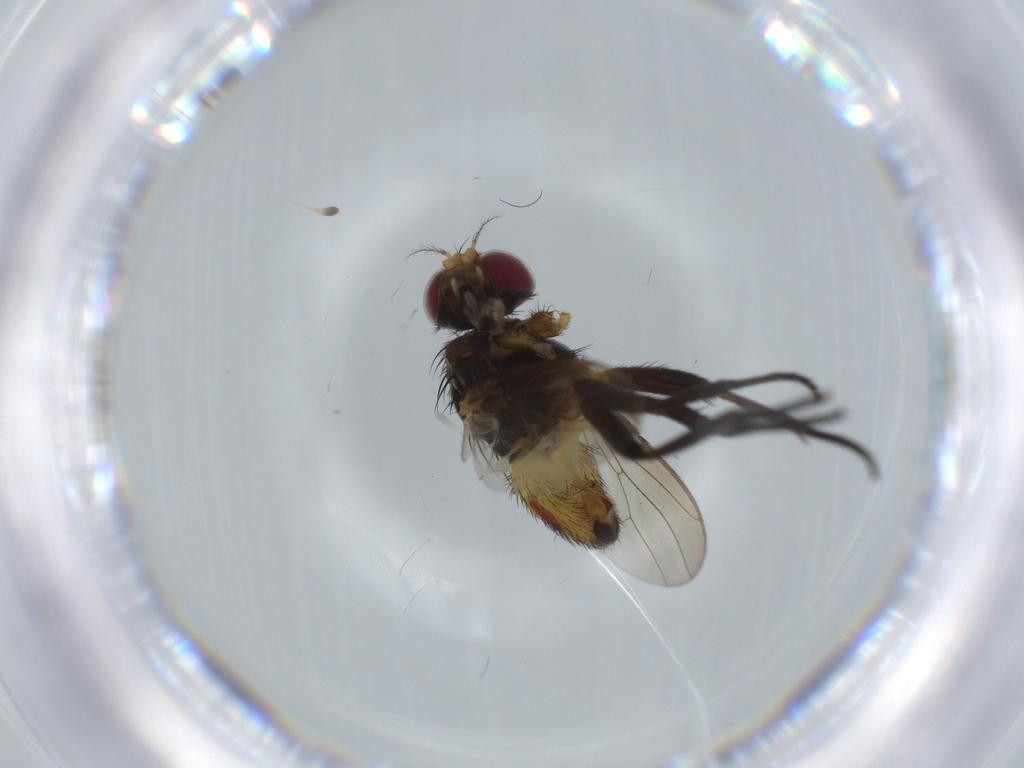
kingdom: Animalia
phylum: Arthropoda
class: Insecta
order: Diptera
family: Anthomyiidae
